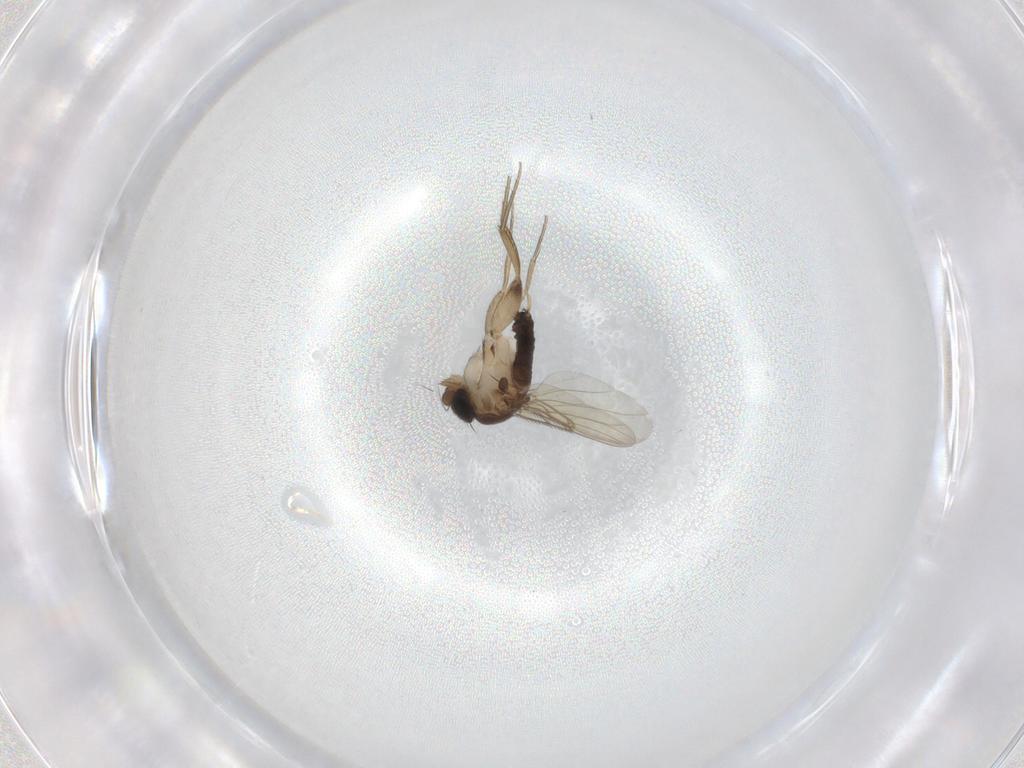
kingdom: Animalia
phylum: Arthropoda
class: Insecta
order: Diptera
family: Phoridae
